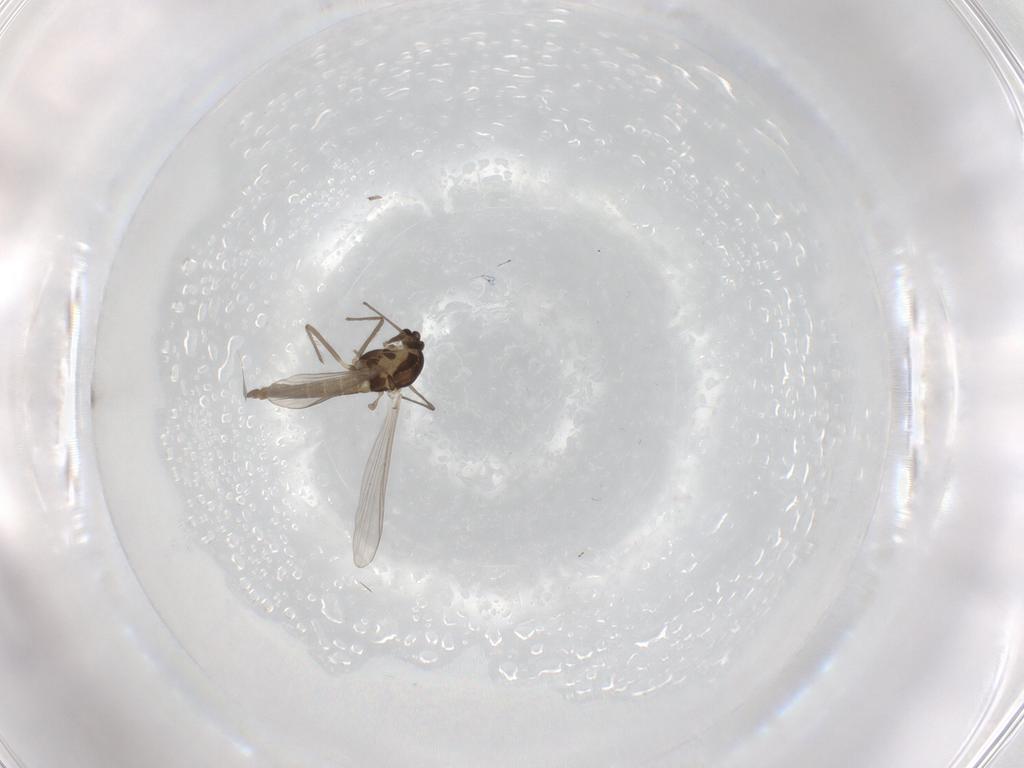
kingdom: Animalia
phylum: Arthropoda
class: Insecta
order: Diptera
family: Chironomidae
